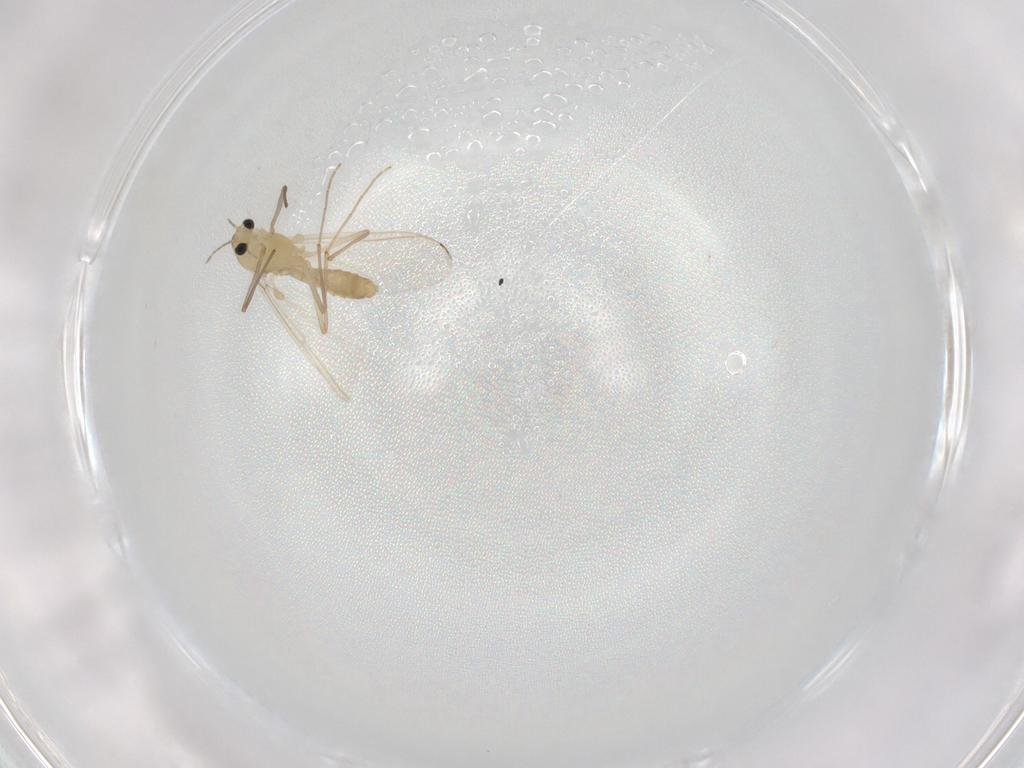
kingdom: Animalia
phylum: Arthropoda
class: Insecta
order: Diptera
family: Chironomidae
